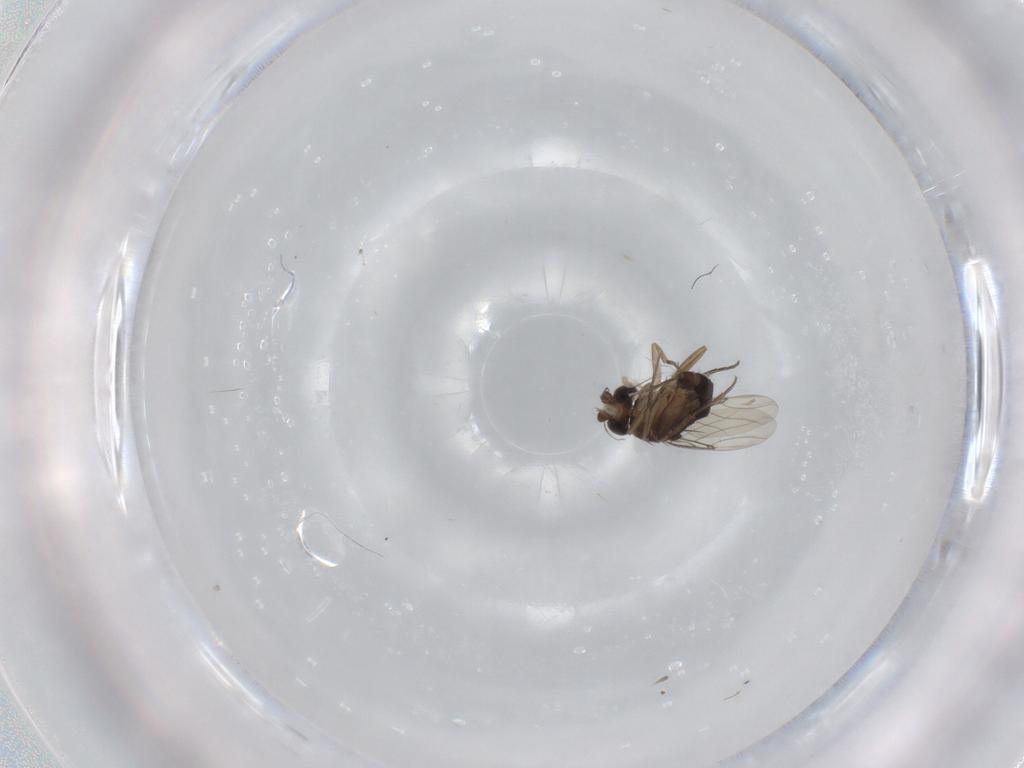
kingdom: Animalia
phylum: Arthropoda
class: Insecta
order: Diptera
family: Phoridae
